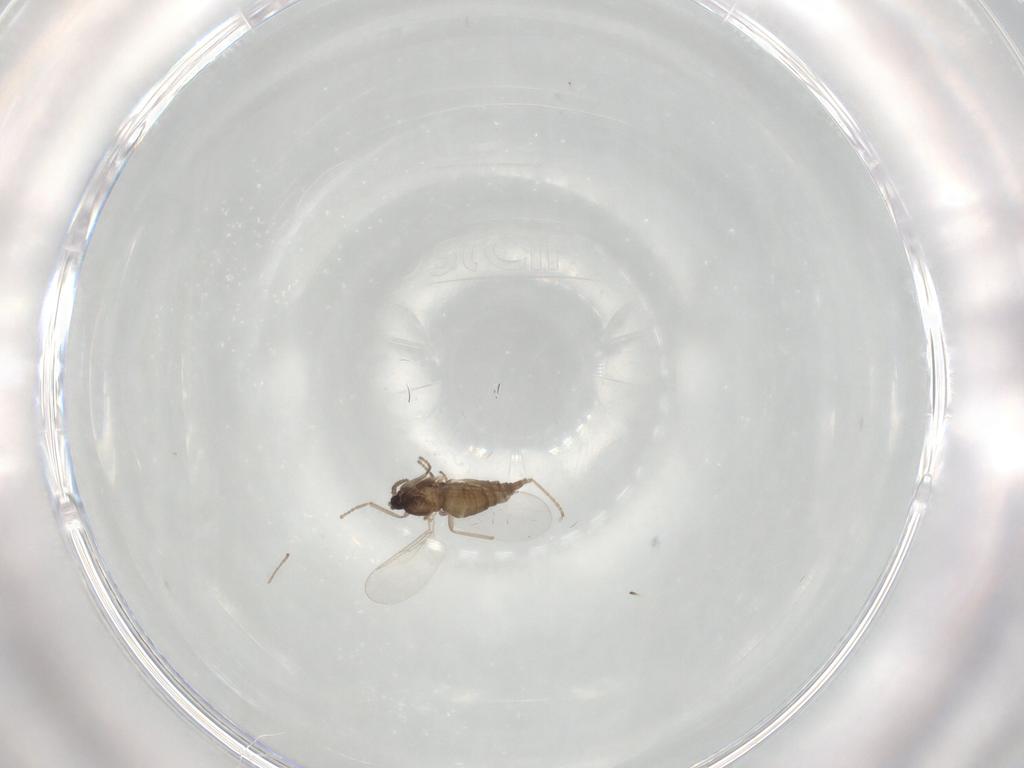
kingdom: Animalia
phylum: Arthropoda
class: Insecta
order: Diptera
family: Cecidomyiidae
